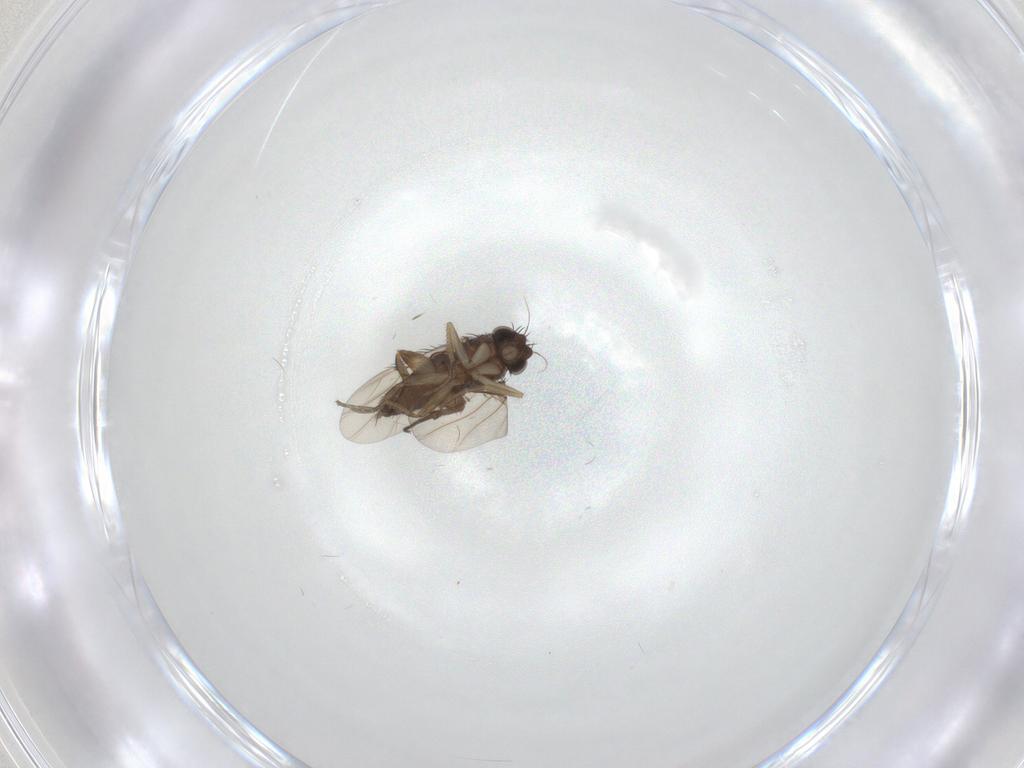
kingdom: Animalia
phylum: Arthropoda
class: Insecta
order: Diptera
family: Phoridae
